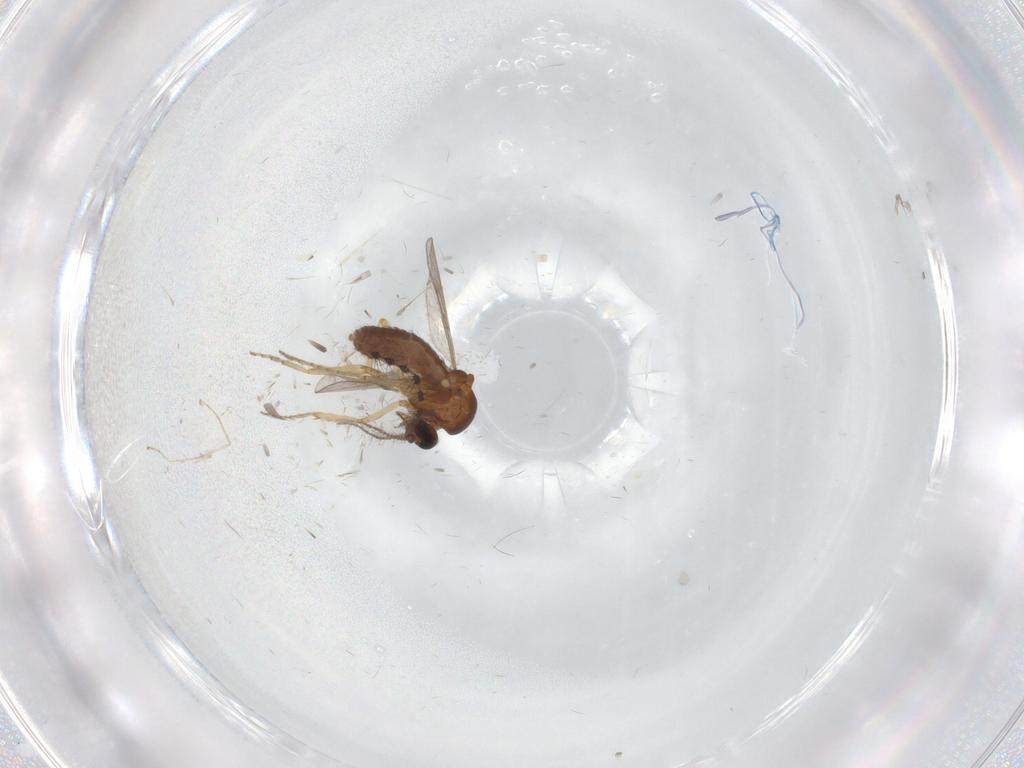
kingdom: Animalia
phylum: Arthropoda
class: Insecta
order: Diptera
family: Ceratopogonidae
